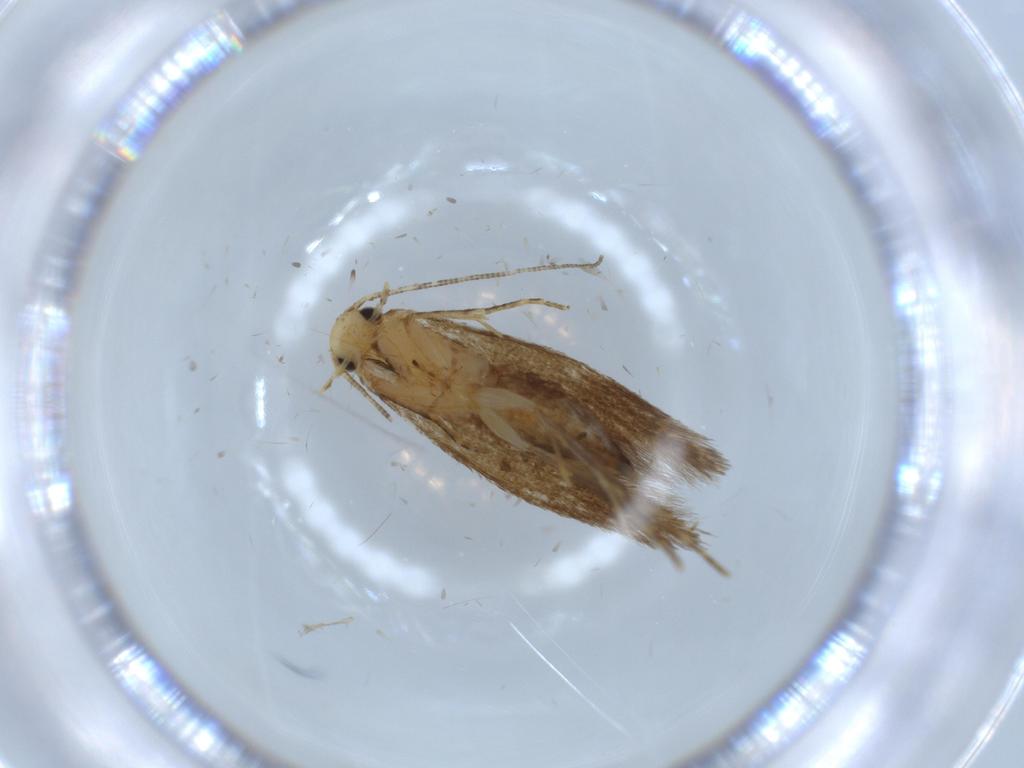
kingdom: Animalia
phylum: Arthropoda
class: Insecta
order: Lepidoptera
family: Tineidae
